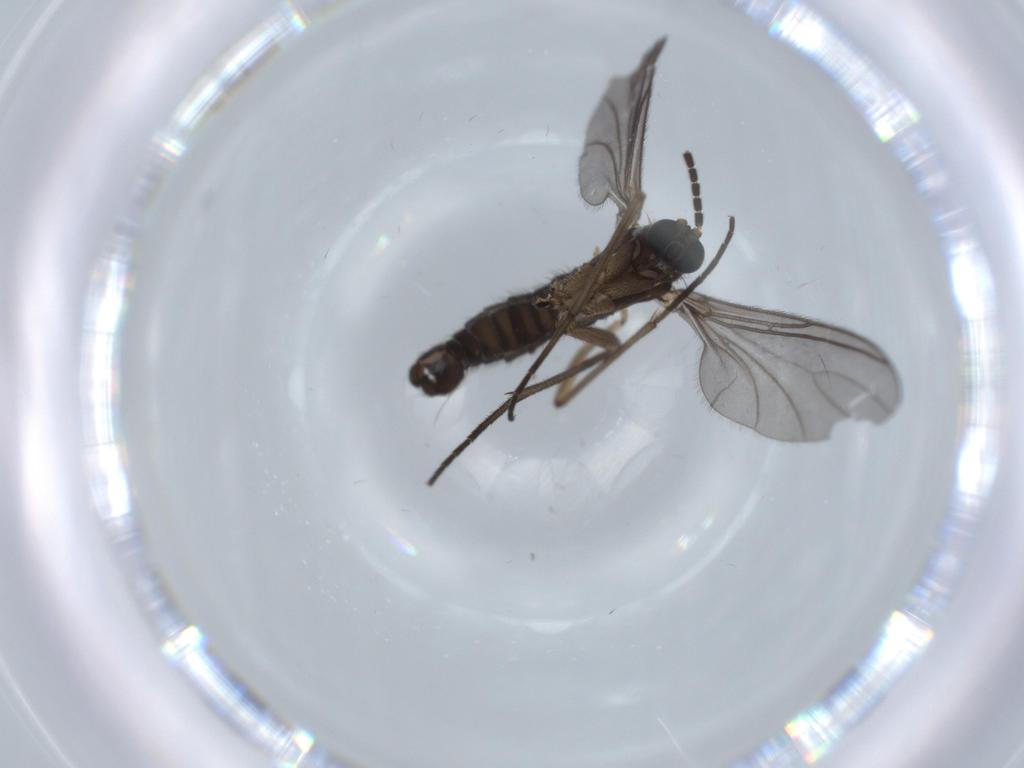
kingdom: Animalia
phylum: Arthropoda
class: Insecta
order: Diptera
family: Sciaridae
